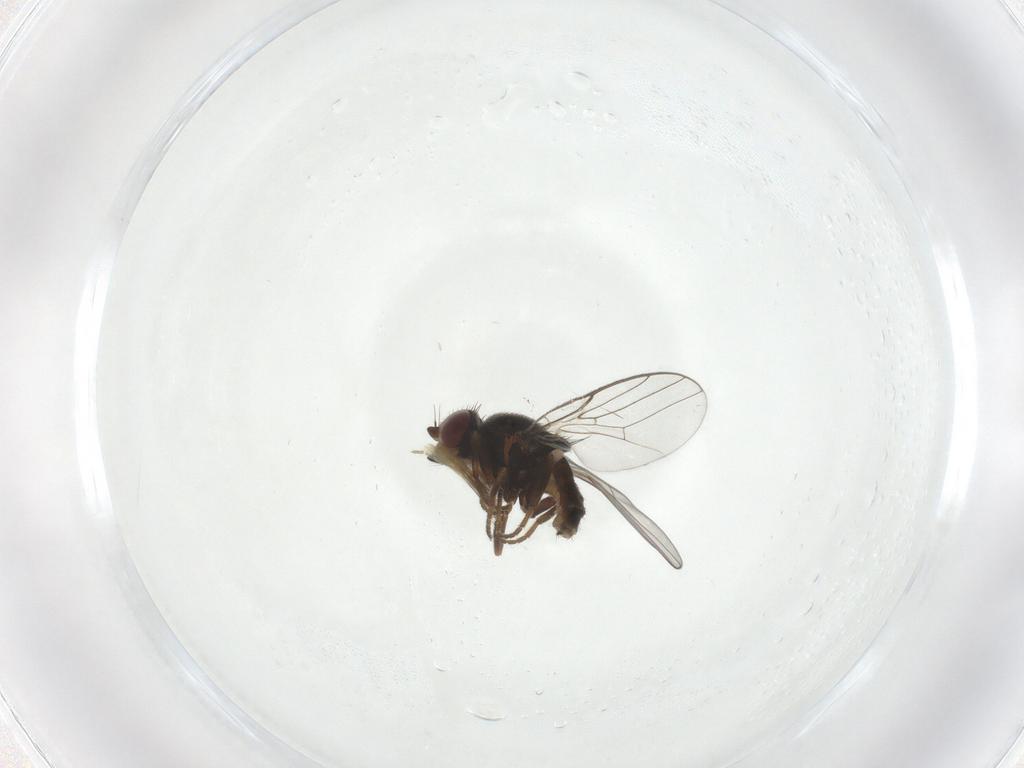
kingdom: Animalia
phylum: Arthropoda
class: Insecta
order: Diptera
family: Chloropidae
